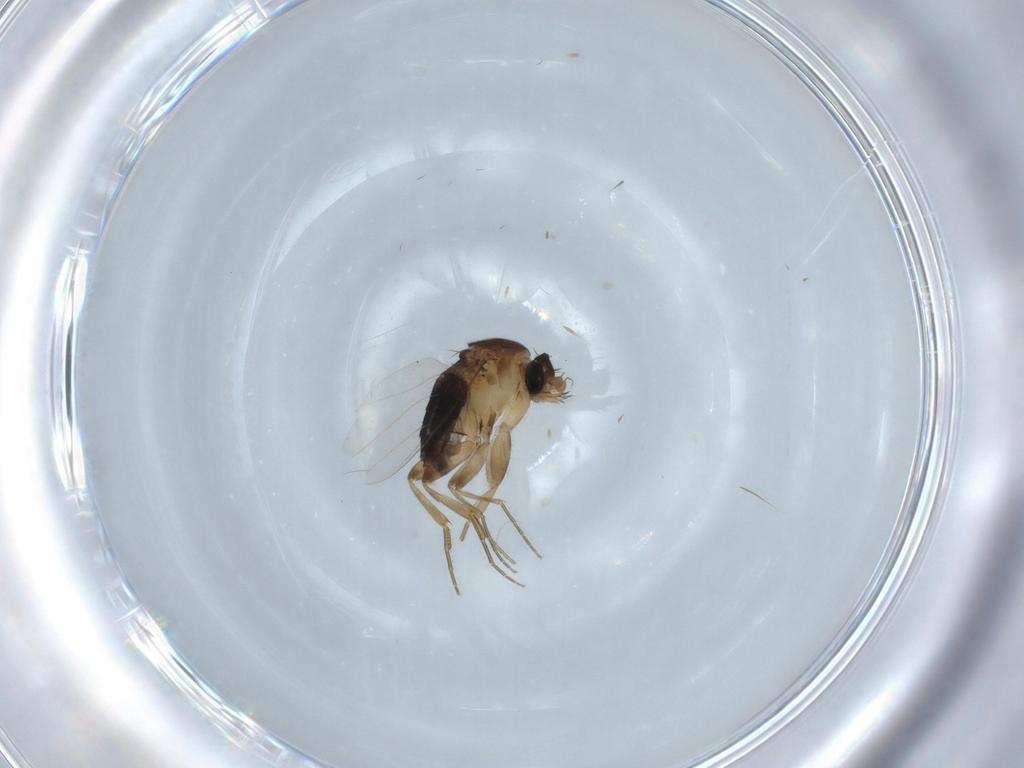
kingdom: Animalia
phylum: Arthropoda
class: Insecta
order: Diptera
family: Phoridae
